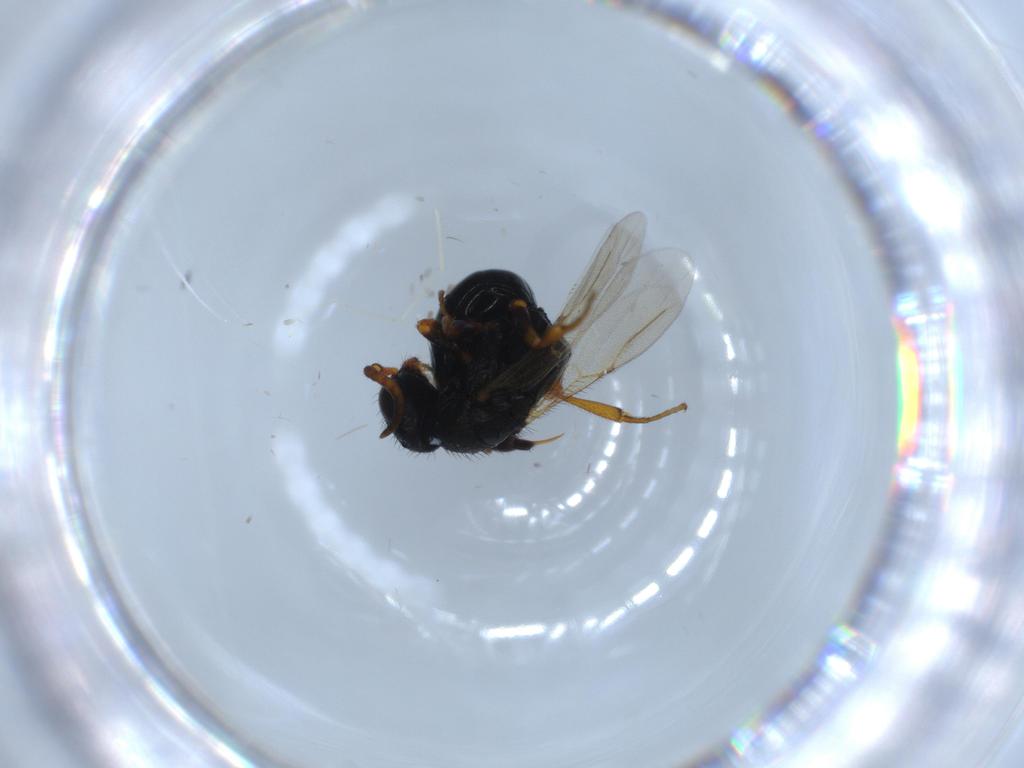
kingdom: Animalia
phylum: Arthropoda
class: Insecta
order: Hymenoptera
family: Bethylidae
